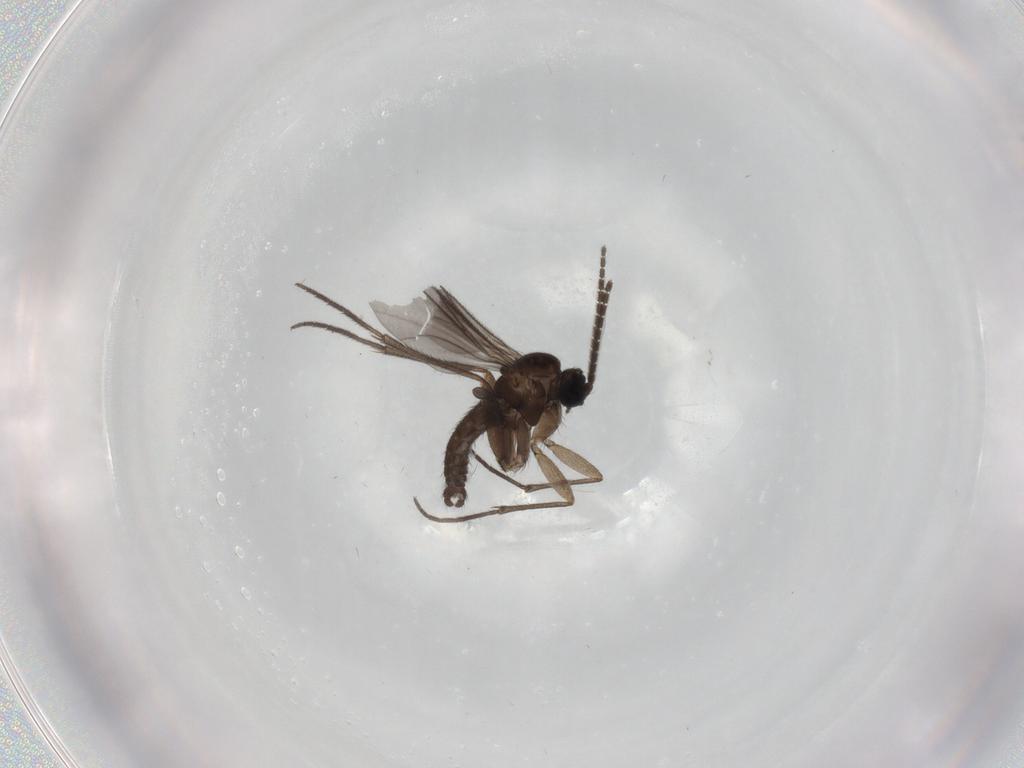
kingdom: Animalia
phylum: Arthropoda
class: Insecta
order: Diptera
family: Sciaridae
